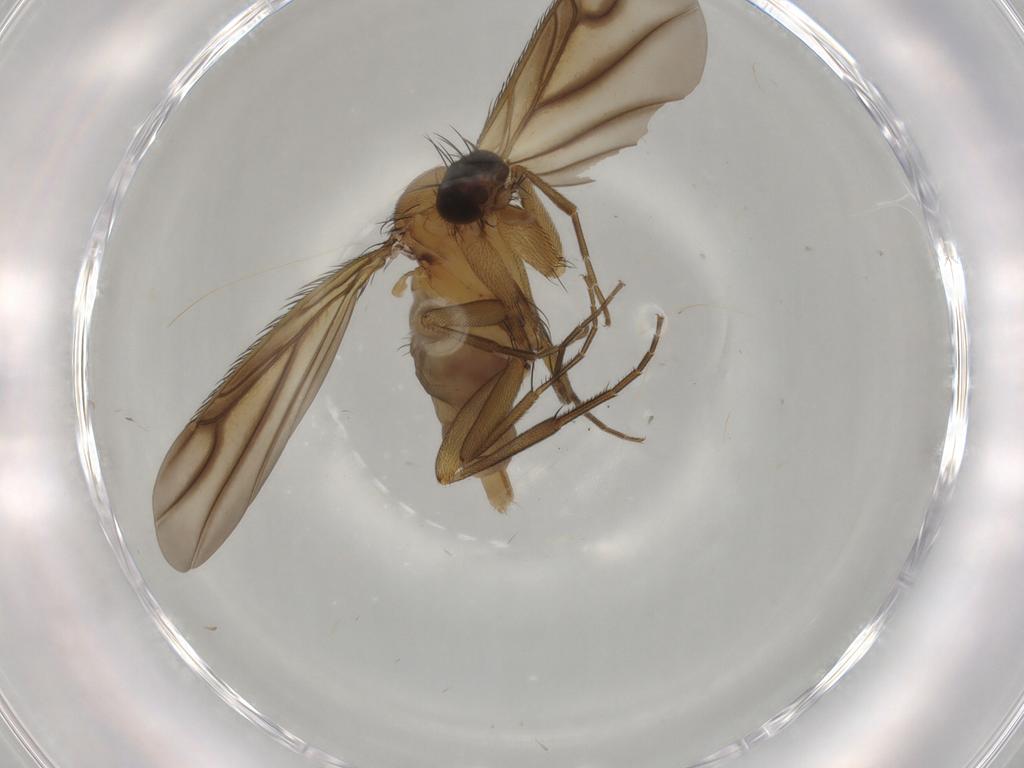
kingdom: Animalia
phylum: Arthropoda
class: Insecta
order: Diptera
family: Phoridae
